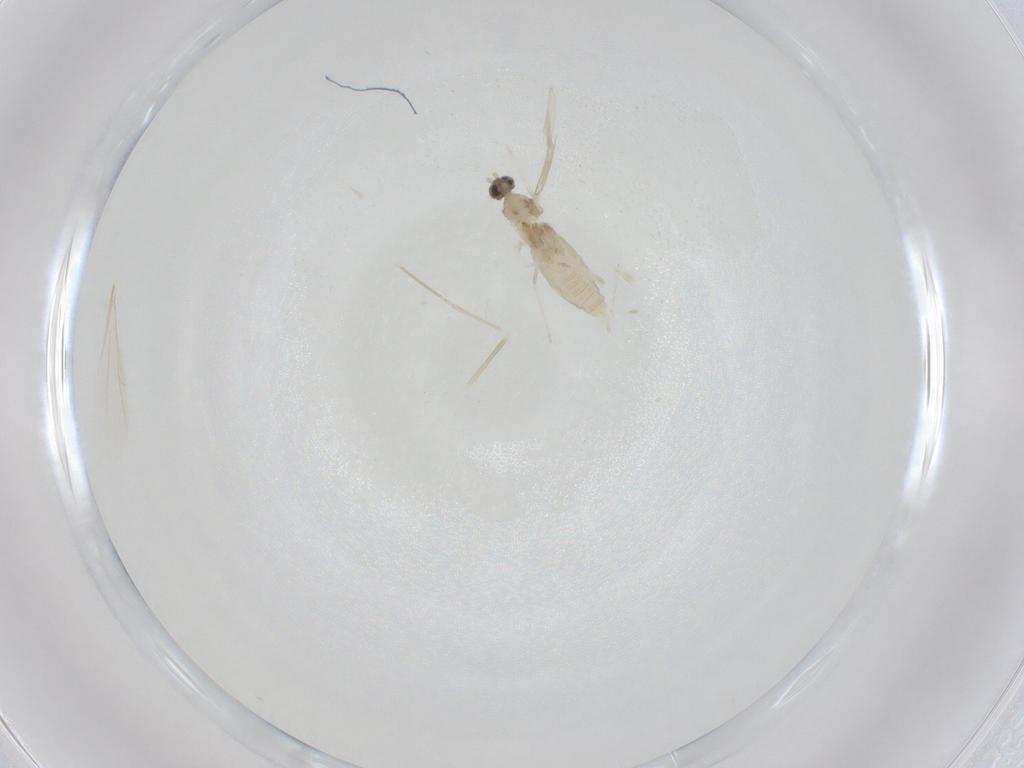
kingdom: Animalia
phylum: Arthropoda
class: Insecta
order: Diptera
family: Cecidomyiidae
